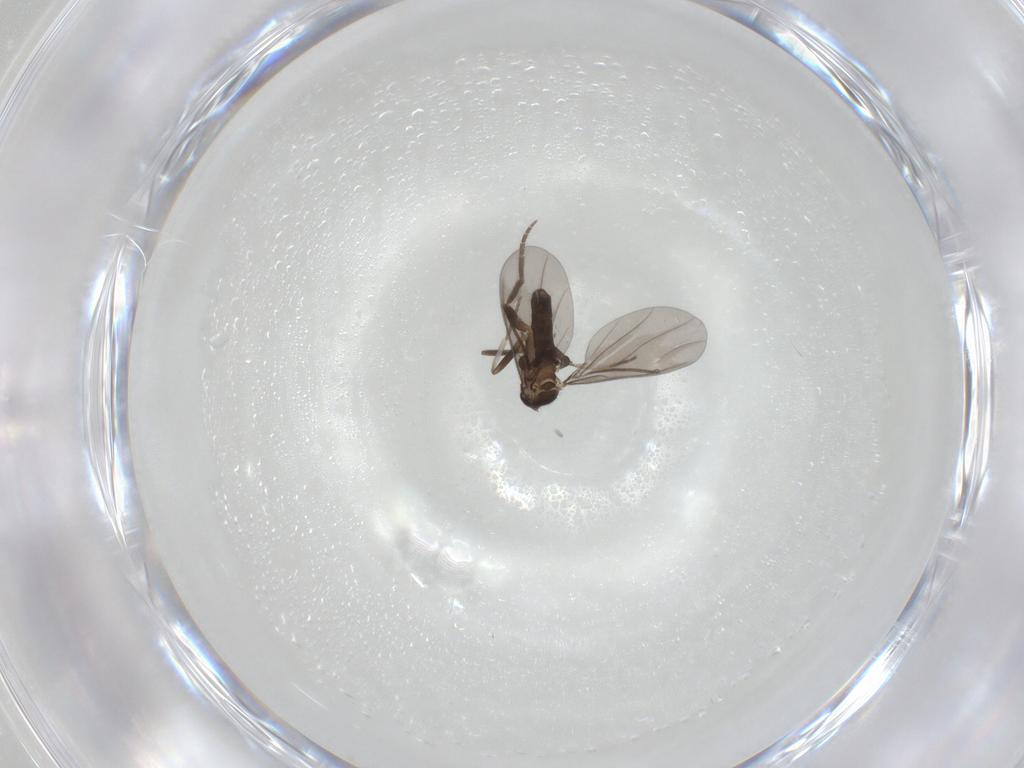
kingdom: Animalia
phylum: Arthropoda
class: Insecta
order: Diptera
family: Phoridae
